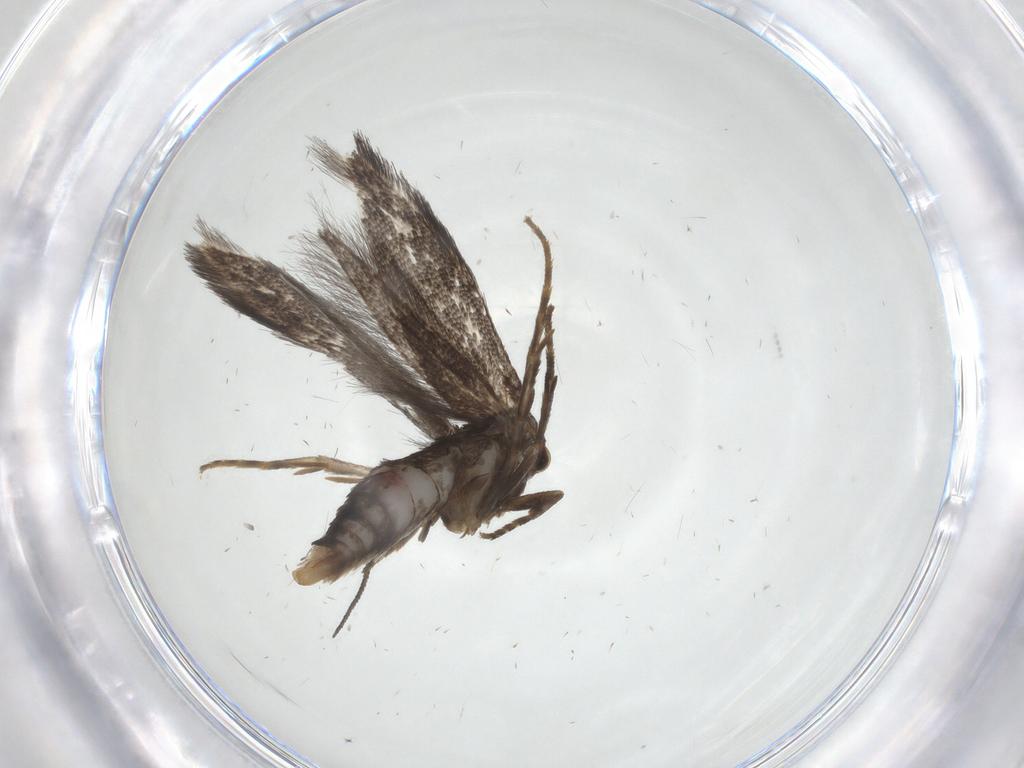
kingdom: Animalia
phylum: Arthropoda
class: Insecta
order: Lepidoptera
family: Elachistidae
